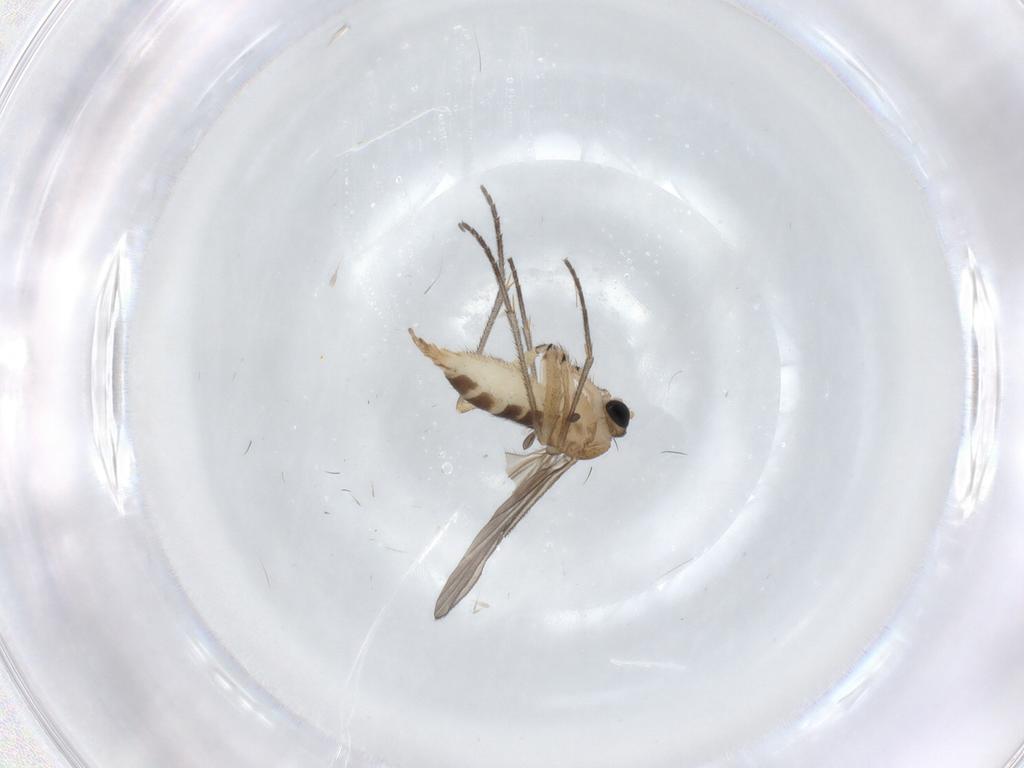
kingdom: Animalia
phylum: Arthropoda
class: Insecta
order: Diptera
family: Sciaridae
